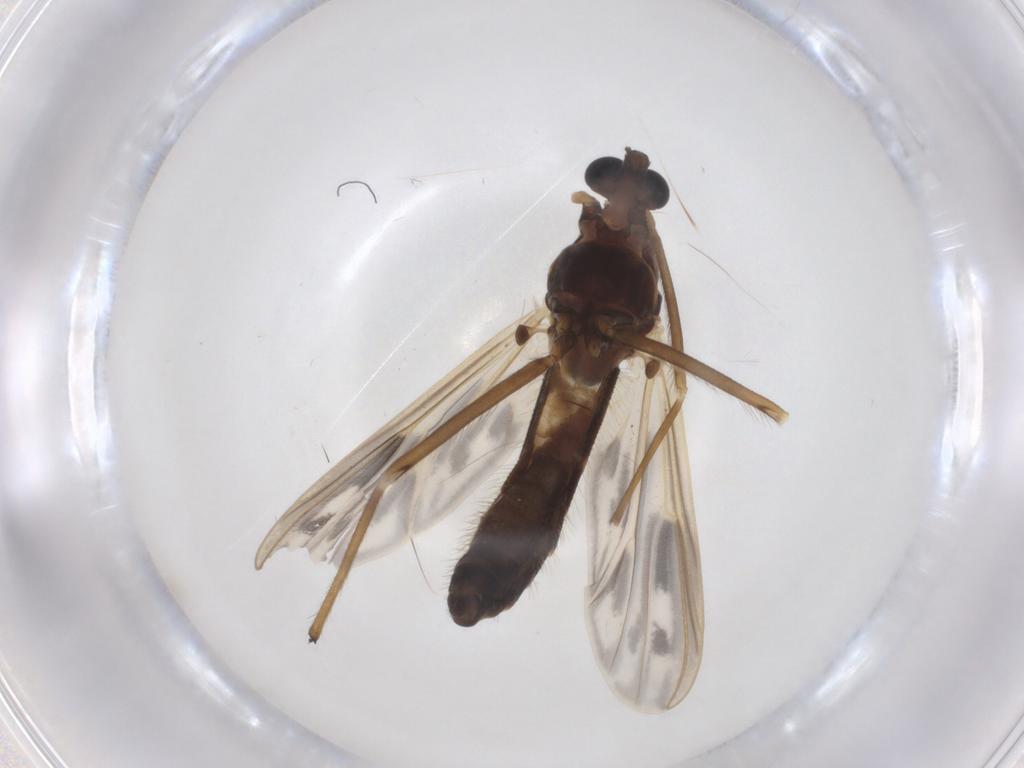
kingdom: Animalia
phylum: Arthropoda
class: Insecta
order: Diptera
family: Chironomidae
